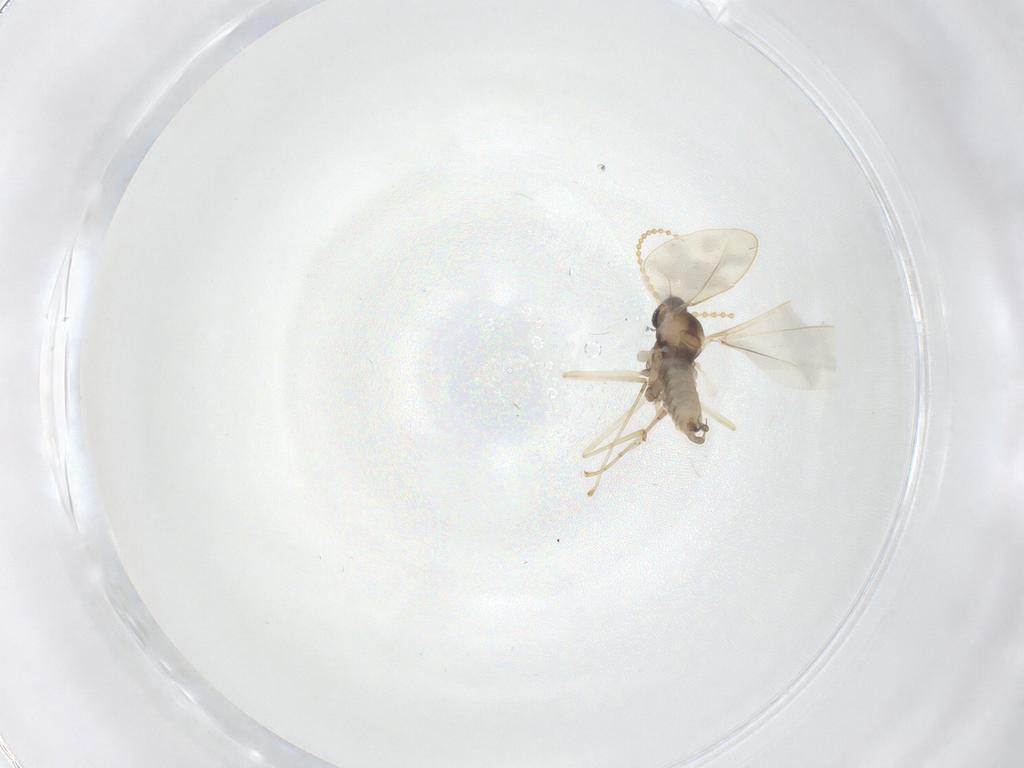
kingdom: Animalia
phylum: Arthropoda
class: Insecta
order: Diptera
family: Cecidomyiidae
